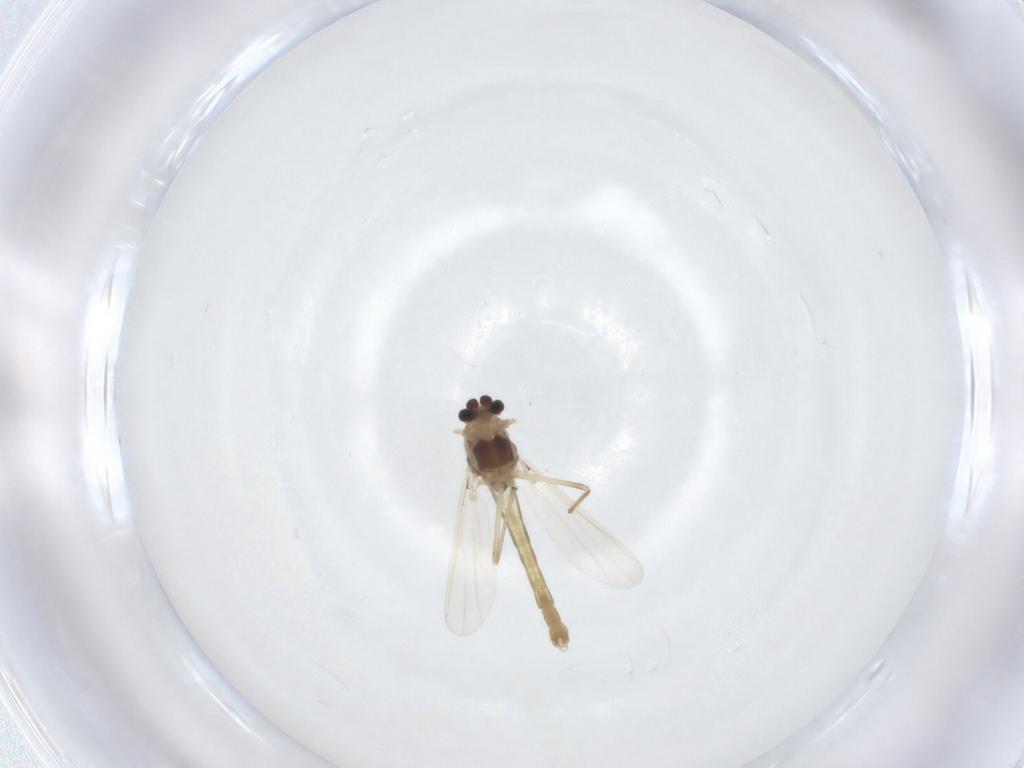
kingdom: Animalia
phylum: Arthropoda
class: Insecta
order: Diptera
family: Chironomidae
